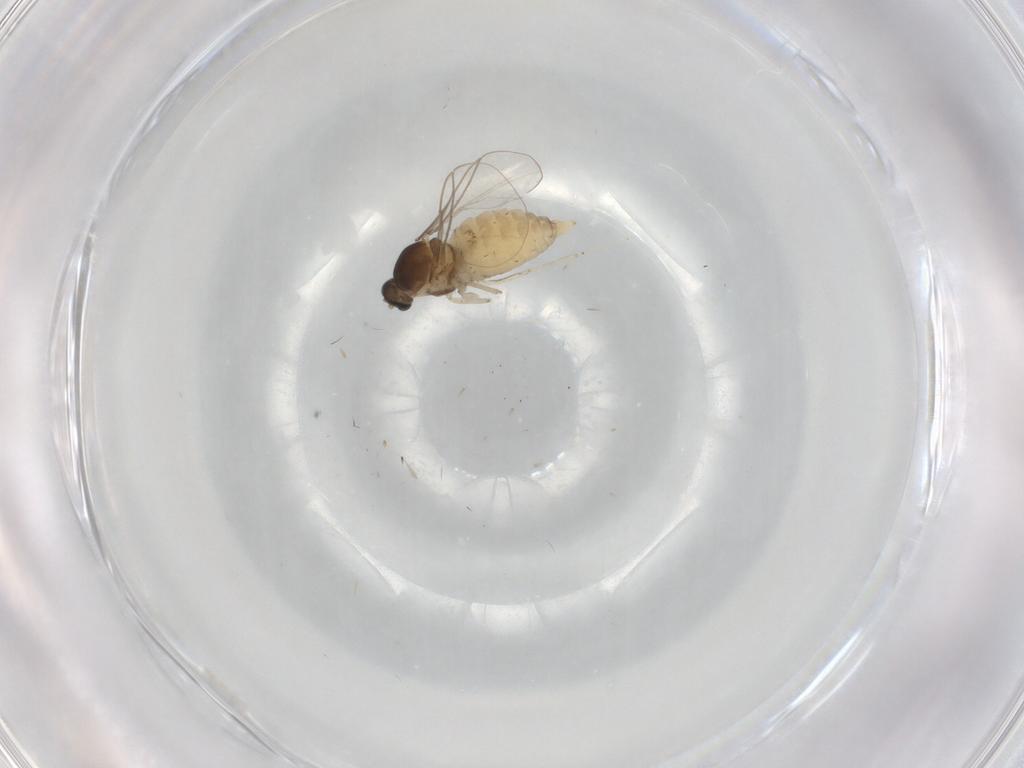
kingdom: Animalia
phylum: Arthropoda
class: Insecta
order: Diptera
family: Cecidomyiidae
